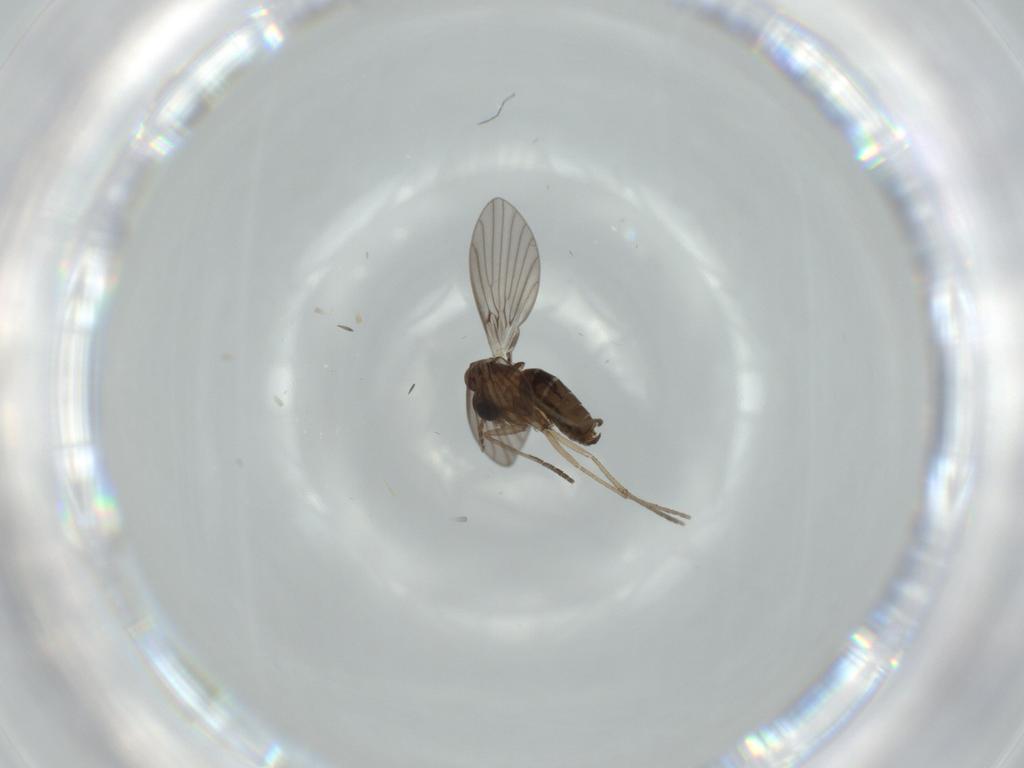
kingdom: Animalia
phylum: Arthropoda
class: Insecta
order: Diptera
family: Psychodidae
